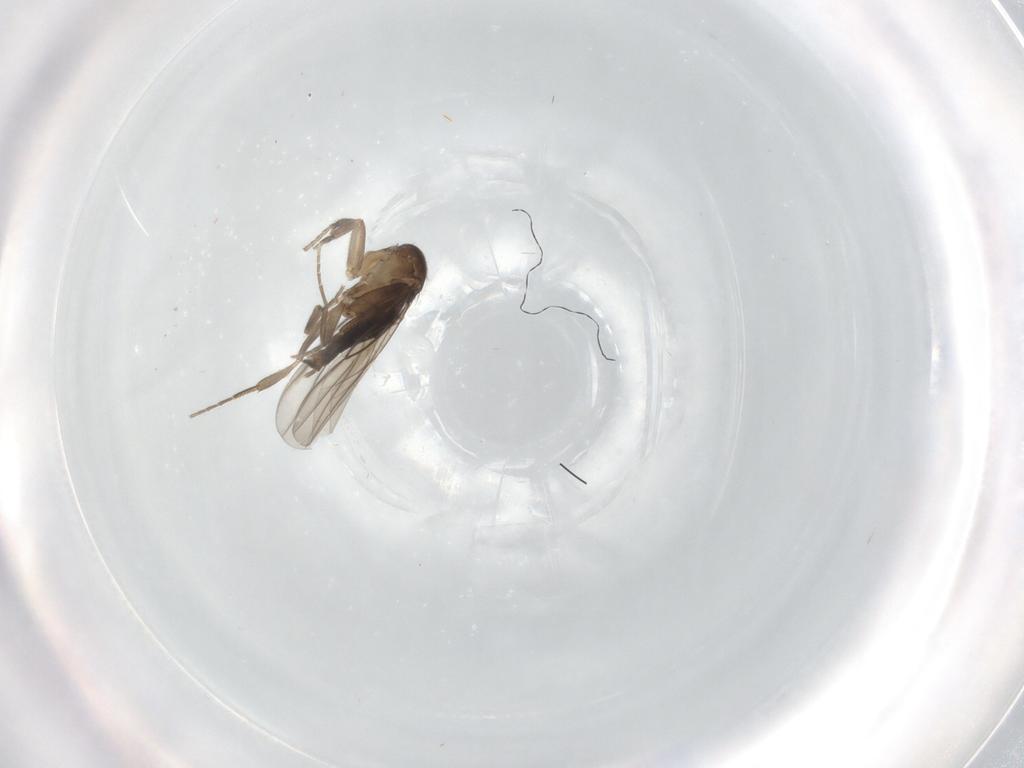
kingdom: Animalia
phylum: Arthropoda
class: Insecta
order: Diptera
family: Phoridae
